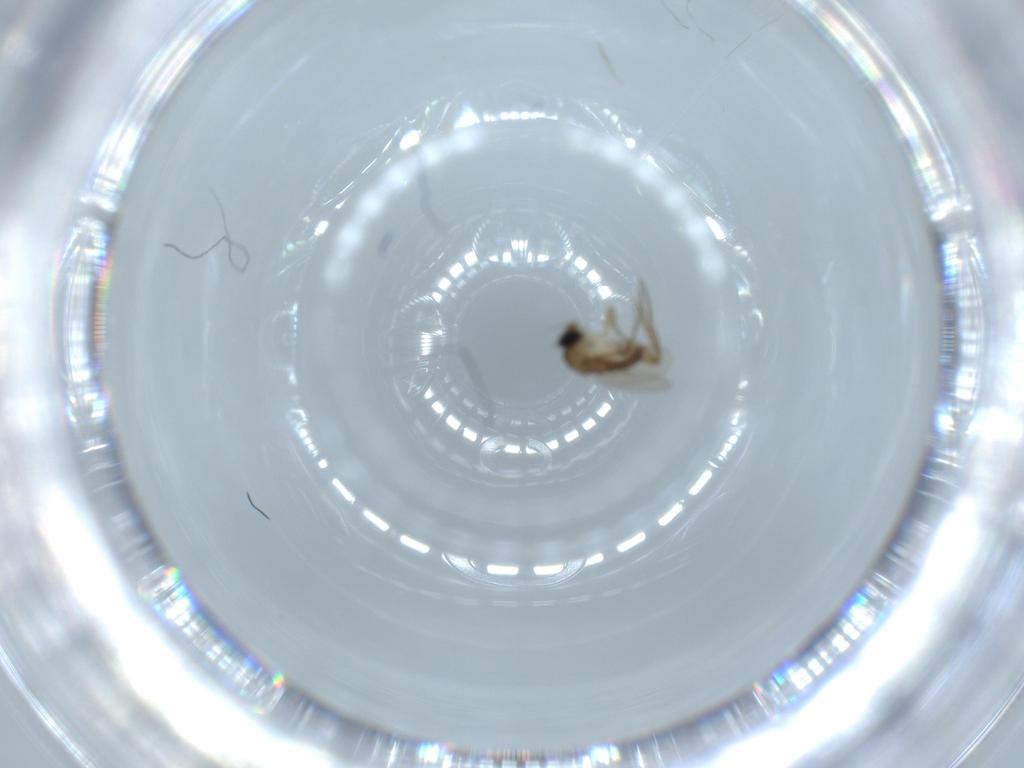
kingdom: Animalia
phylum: Arthropoda
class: Insecta
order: Diptera
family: Phoridae
